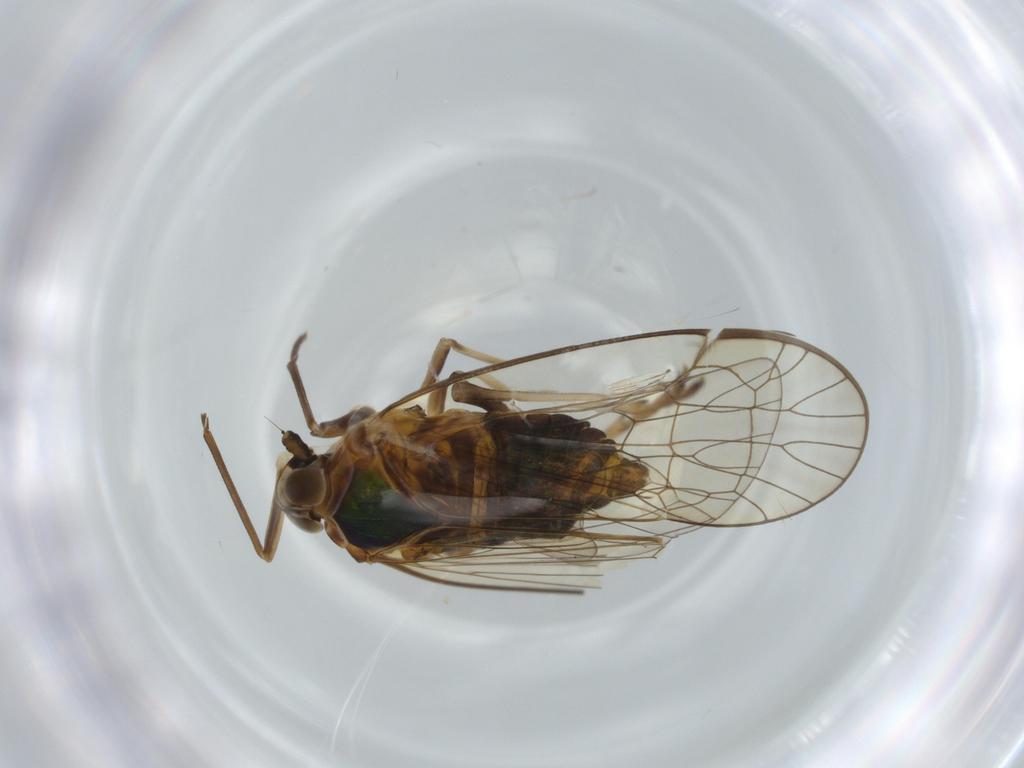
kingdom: Animalia
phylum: Arthropoda
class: Insecta
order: Hemiptera
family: Kinnaridae
